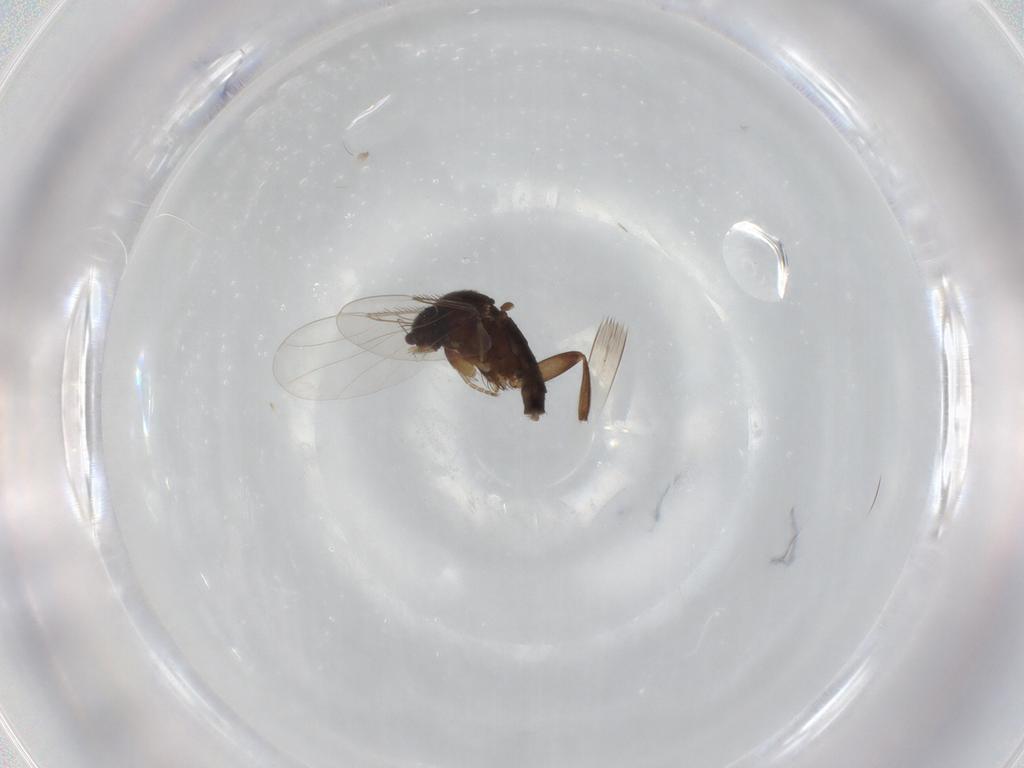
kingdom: Animalia
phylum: Arthropoda
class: Insecta
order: Diptera
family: Phoridae
